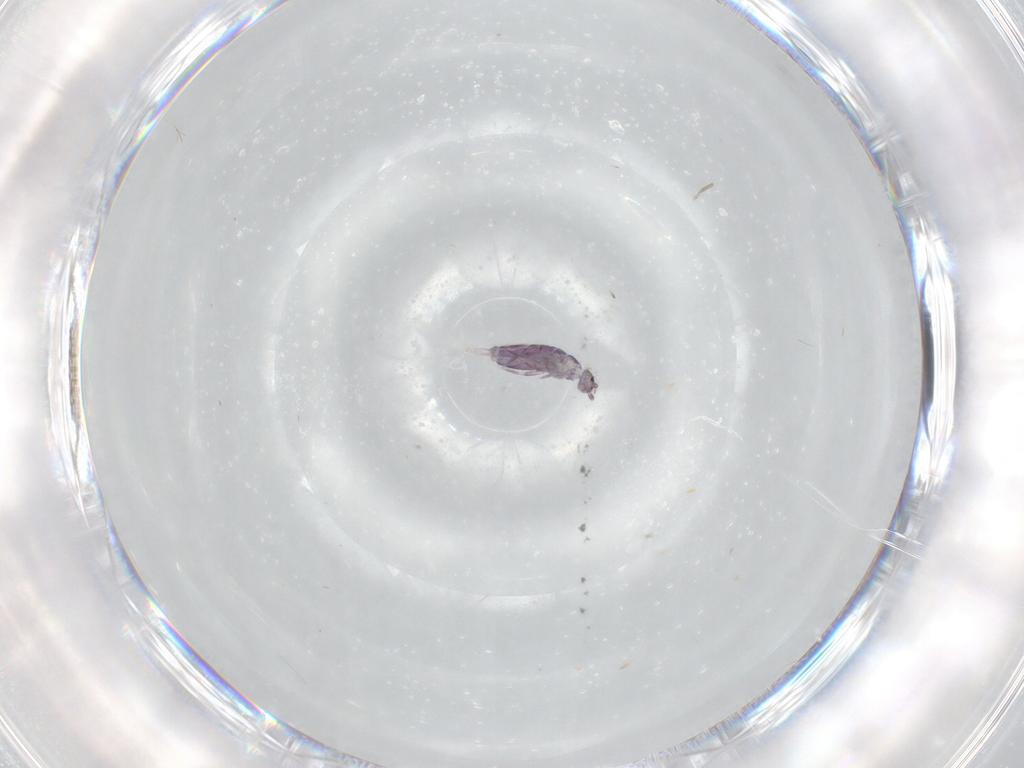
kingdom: Animalia
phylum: Arthropoda
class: Collembola
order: Entomobryomorpha
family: Entomobryidae
